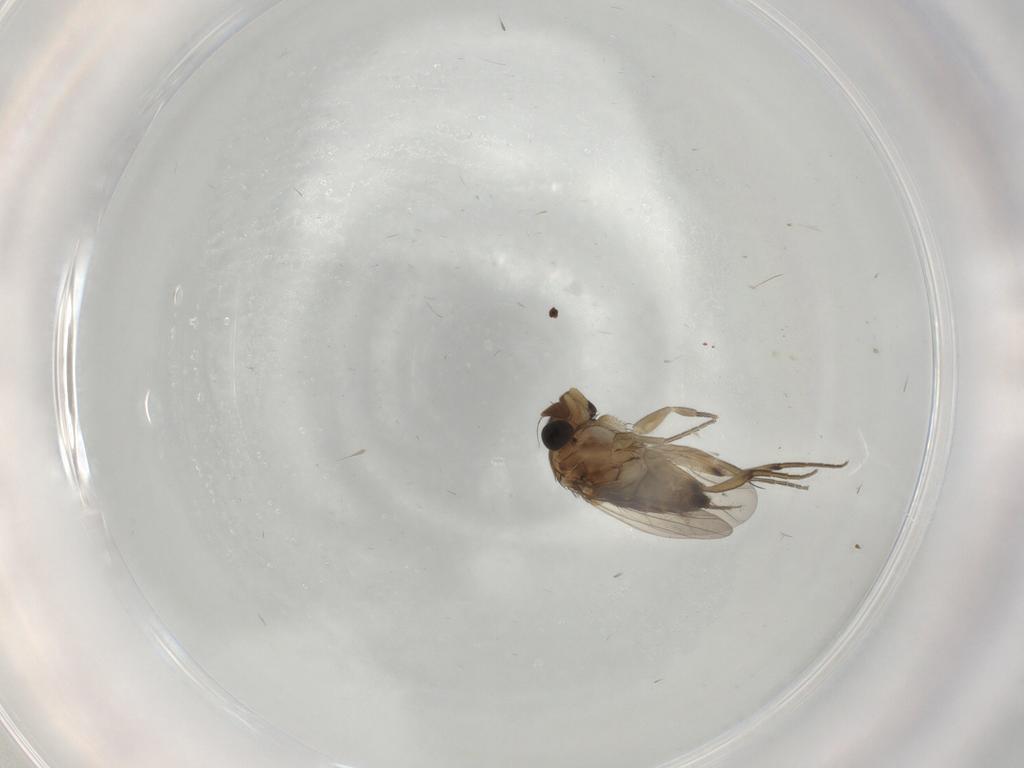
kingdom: Animalia
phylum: Arthropoda
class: Insecta
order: Diptera
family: Phoridae
